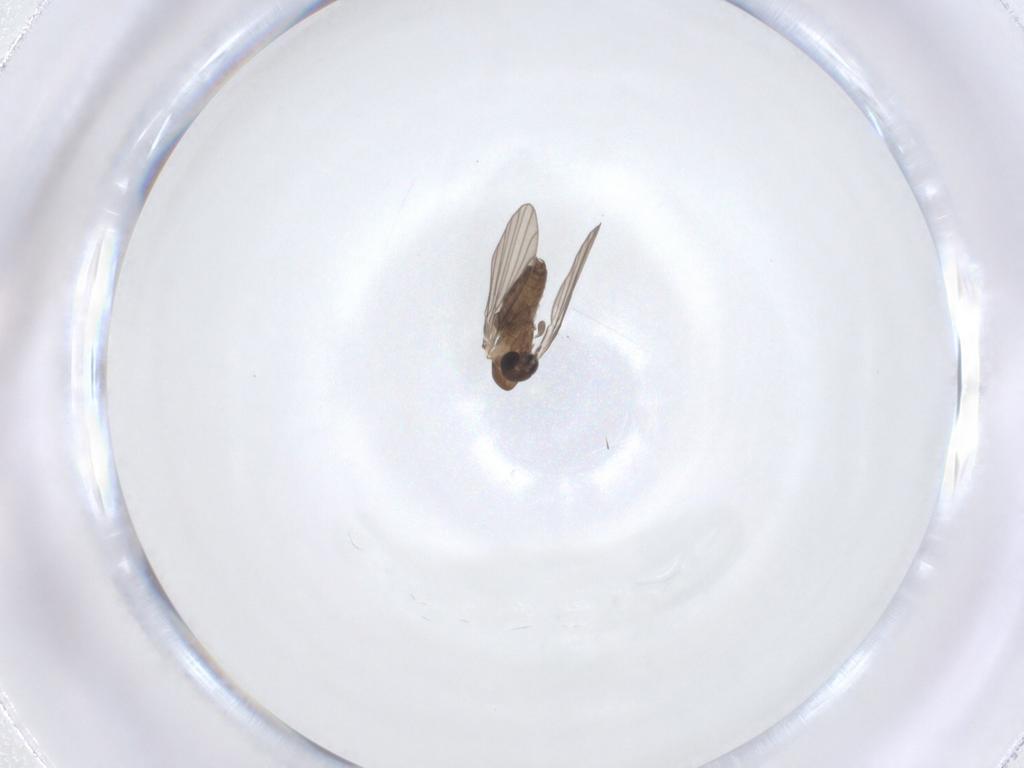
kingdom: Animalia
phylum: Arthropoda
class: Insecta
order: Diptera
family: Psychodidae
